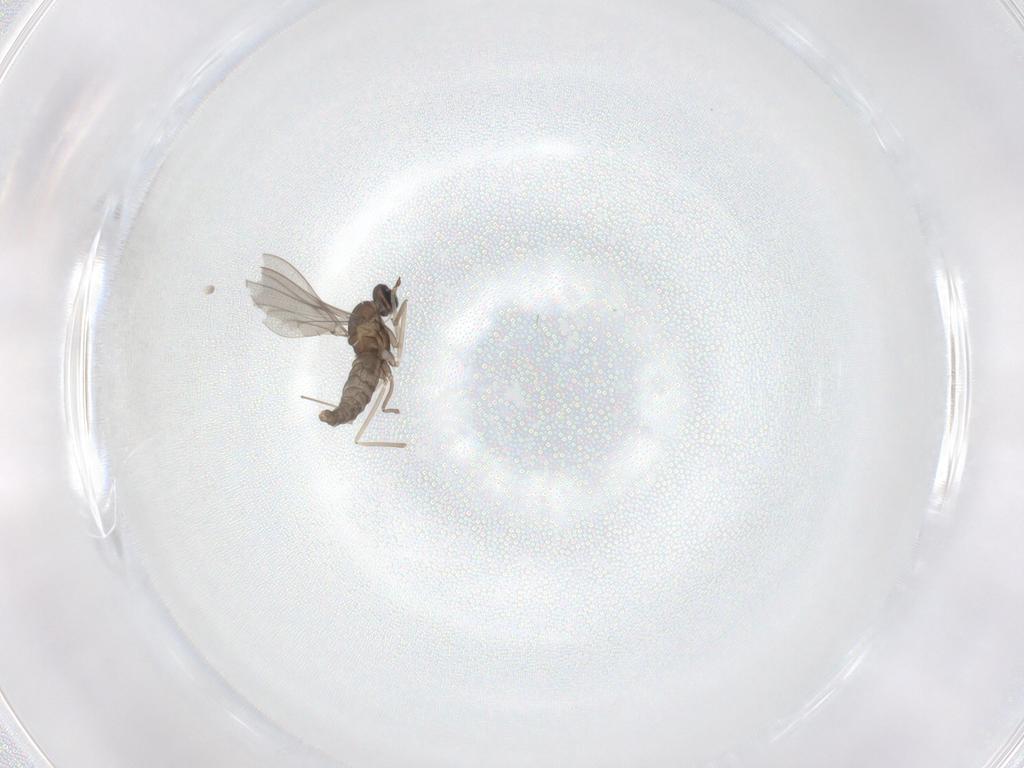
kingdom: Animalia
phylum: Arthropoda
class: Insecta
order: Diptera
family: Cecidomyiidae
